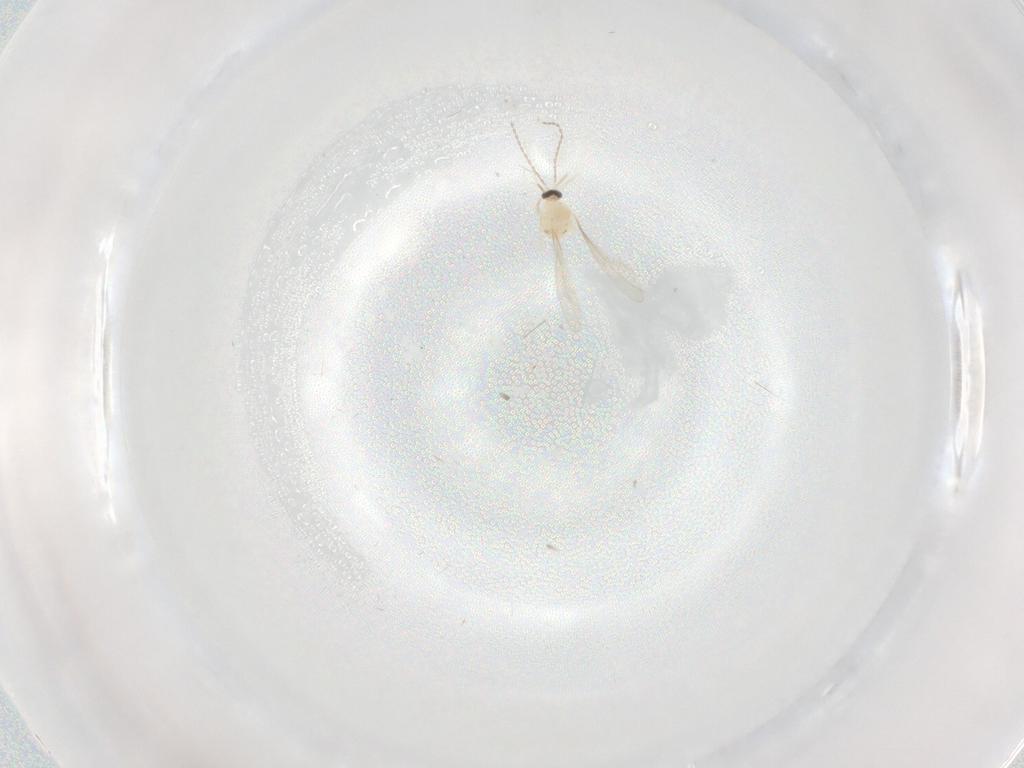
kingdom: Animalia
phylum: Arthropoda
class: Insecta
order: Diptera
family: Cecidomyiidae
